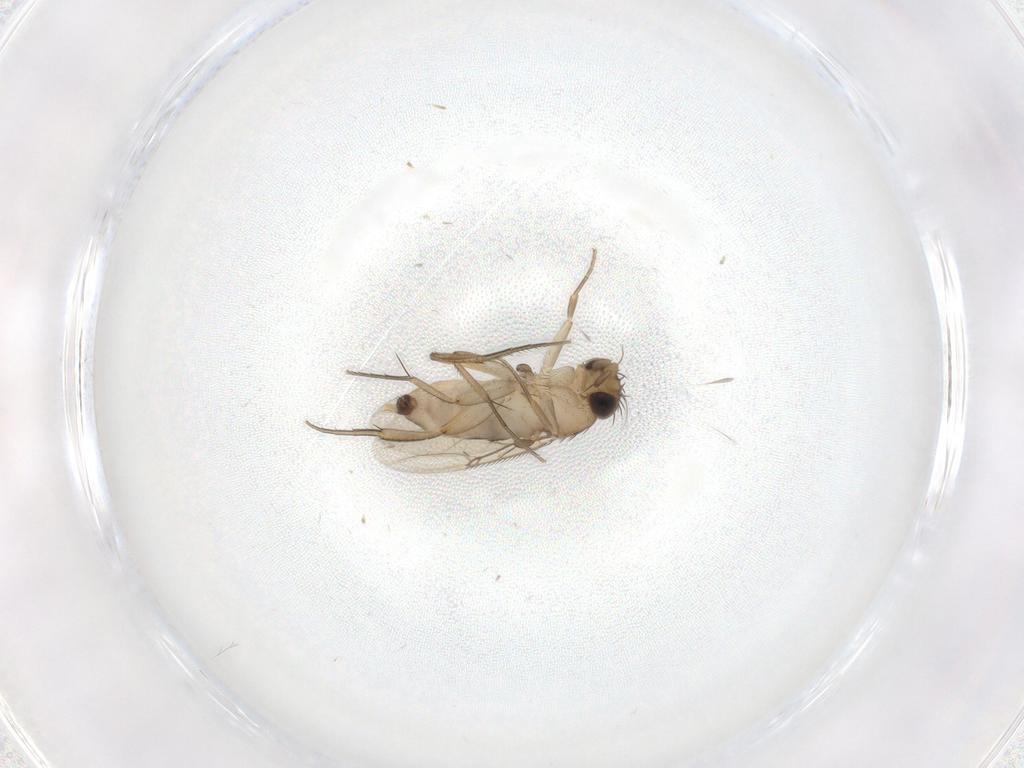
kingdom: Animalia
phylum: Arthropoda
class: Insecta
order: Diptera
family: Phoridae
